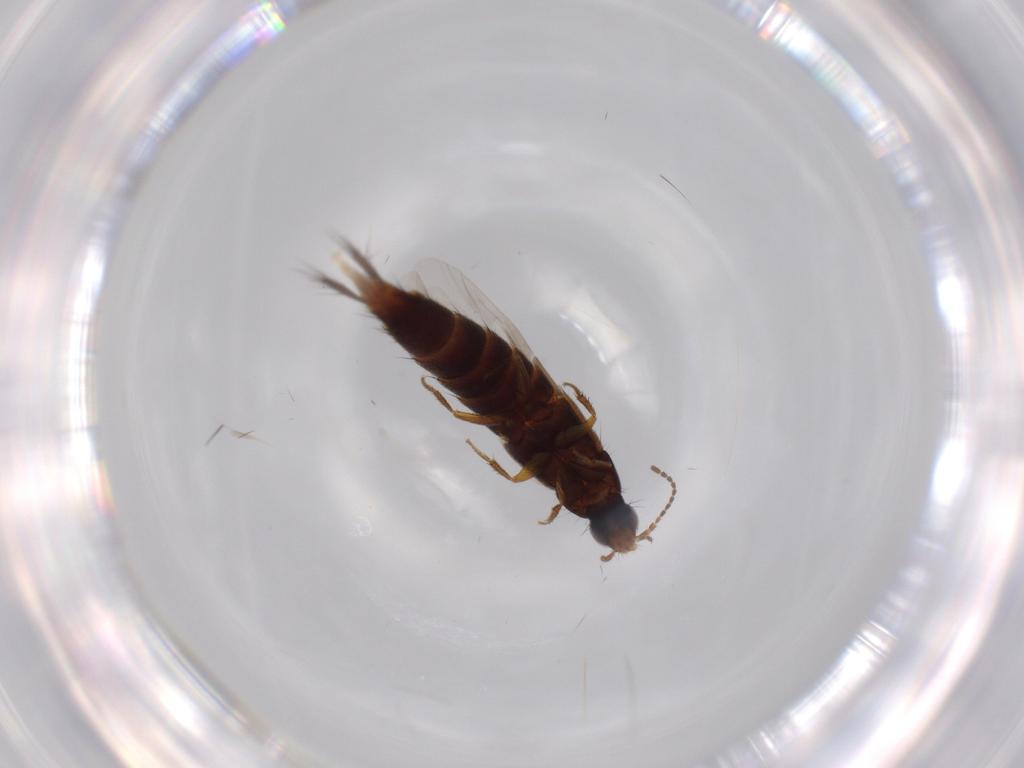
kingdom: Animalia
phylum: Arthropoda
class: Insecta
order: Coleoptera
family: Staphylinidae
